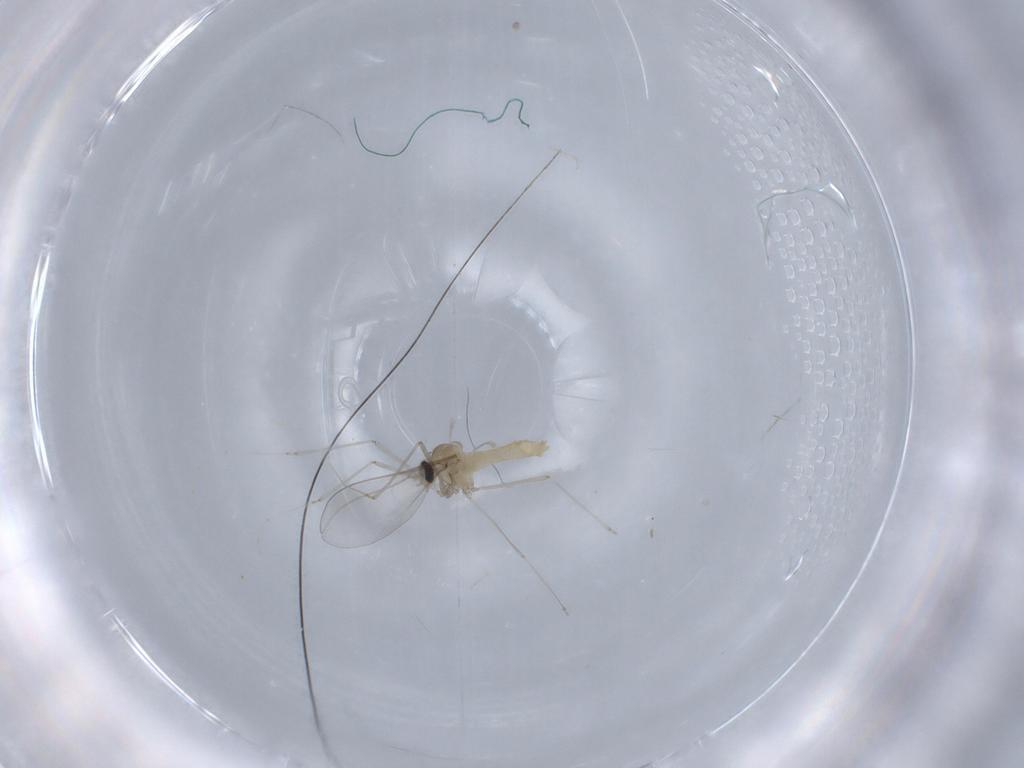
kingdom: Animalia
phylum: Arthropoda
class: Insecta
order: Diptera
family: Cecidomyiidae
